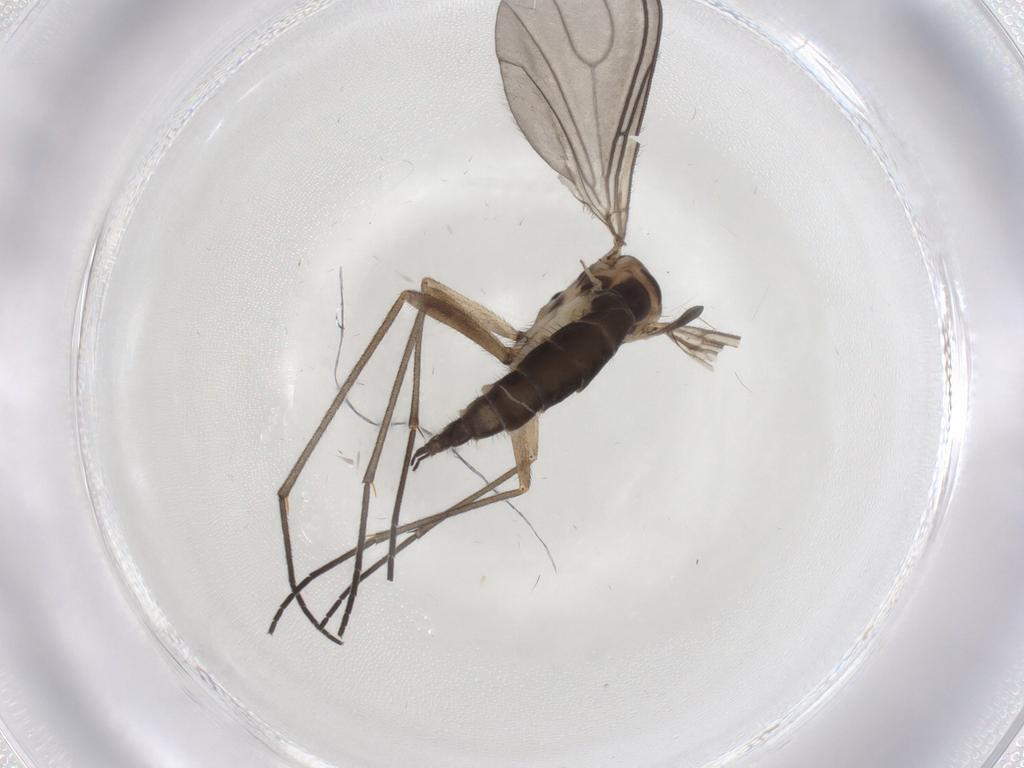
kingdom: Animalia
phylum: Arthropoda
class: Insecta
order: Diptera
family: Sciaridae
